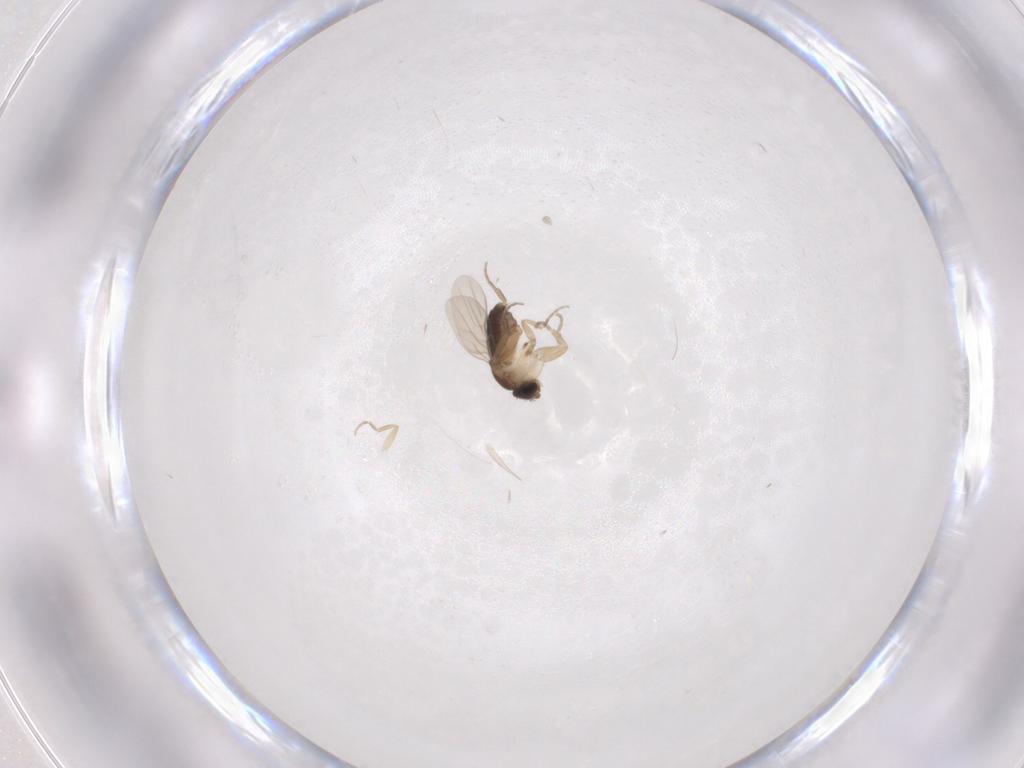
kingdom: Animalia
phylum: Arthropoda
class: Insecta
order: Diptera
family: Phoridae
